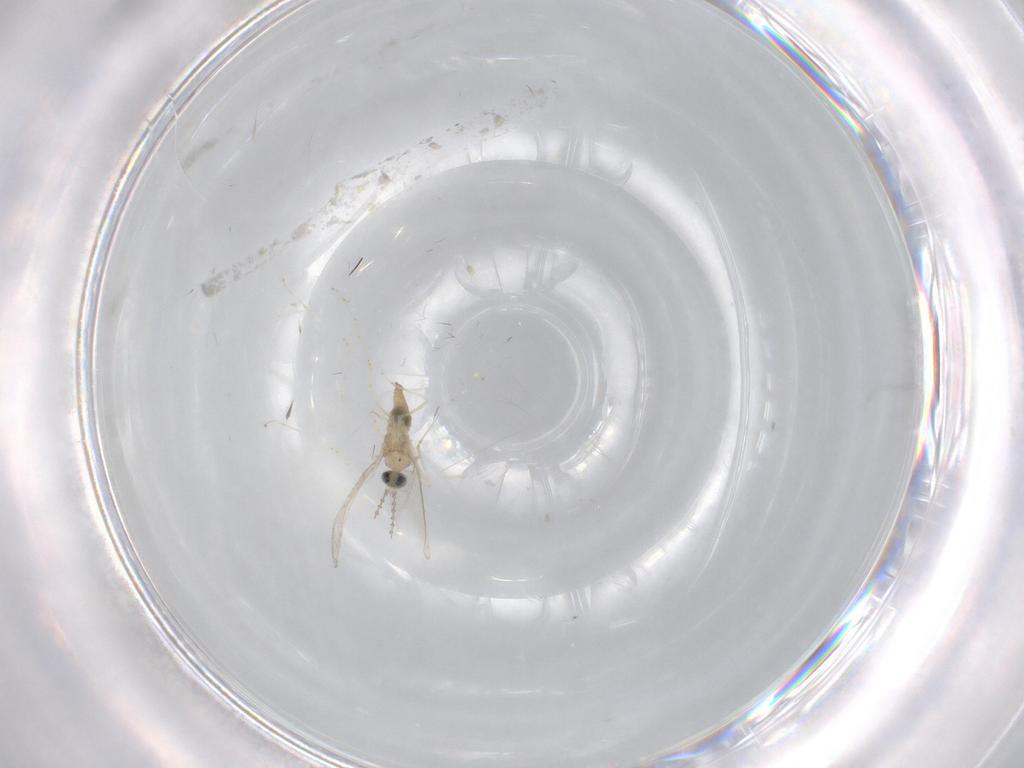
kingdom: Animalia
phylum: Arthropoda
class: Insecta
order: Diptera
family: Cecidomyiidae
